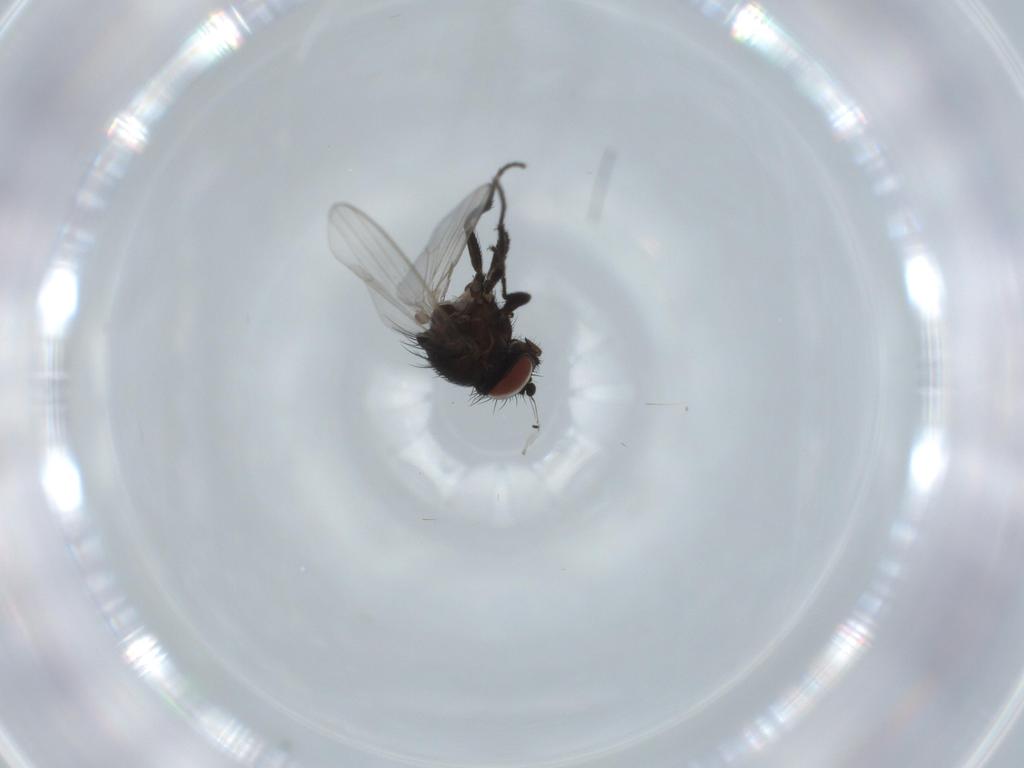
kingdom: Animalia
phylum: Arthropoda
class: Insecta
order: Diptera
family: Milichiidae
